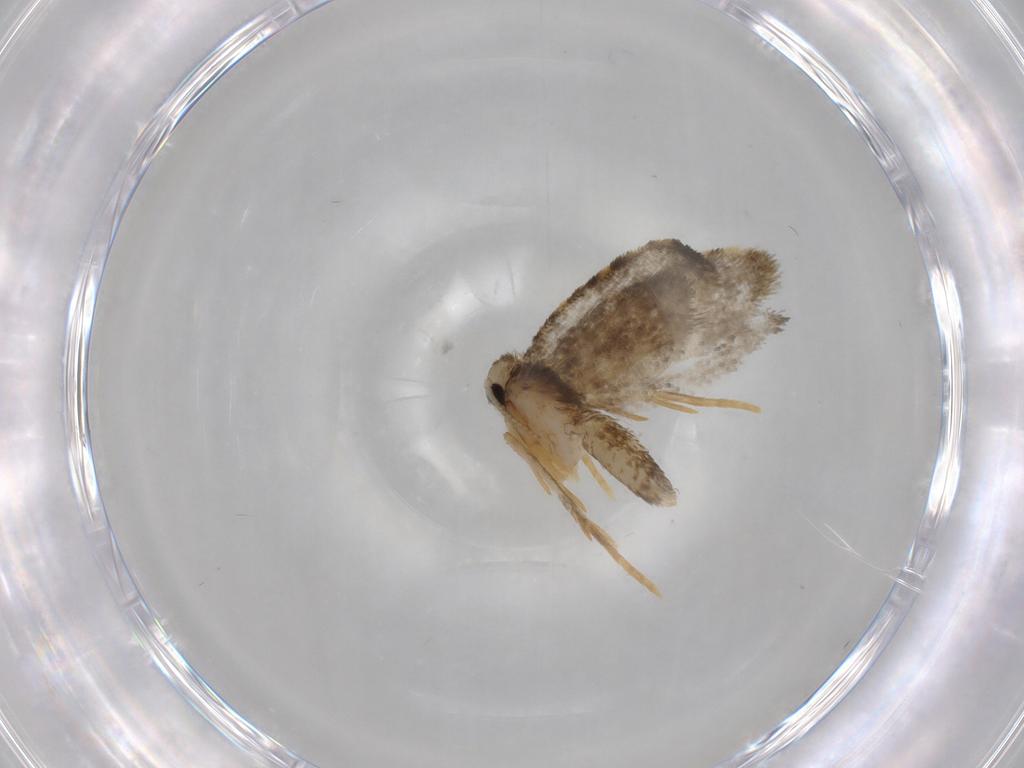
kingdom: Animalia
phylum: Arthropoda
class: Insecta
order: Lepidoptera
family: Psychidae
